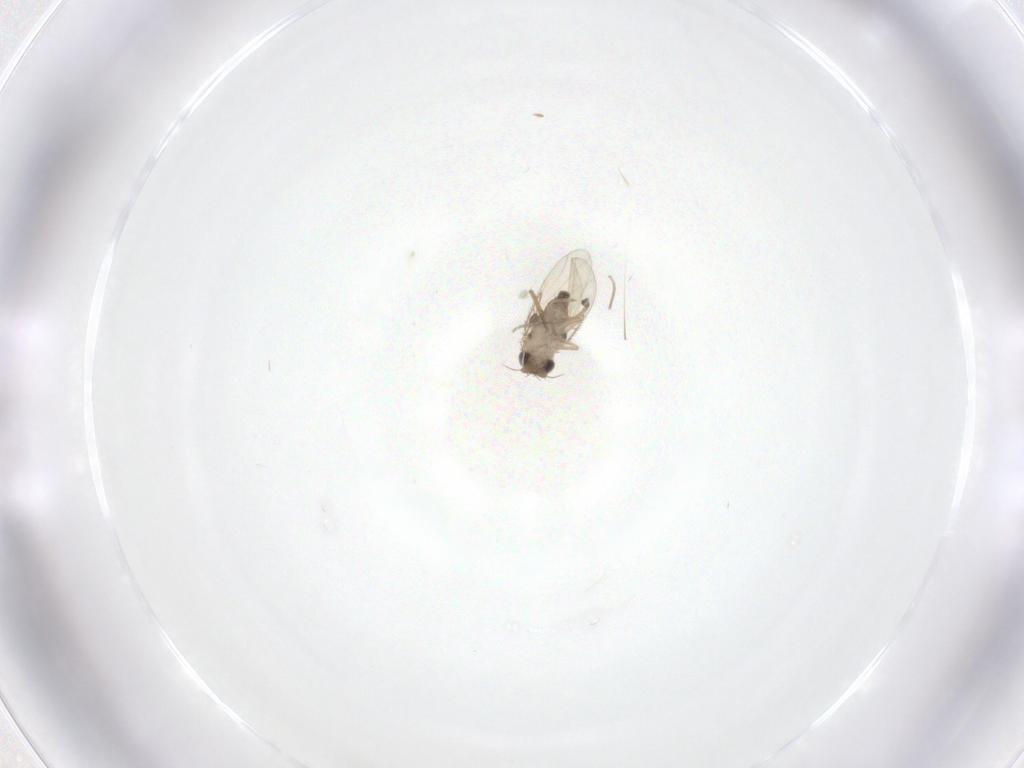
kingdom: Animalia
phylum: Arthropoda
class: Insecta
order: Diptera
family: Phoridae
